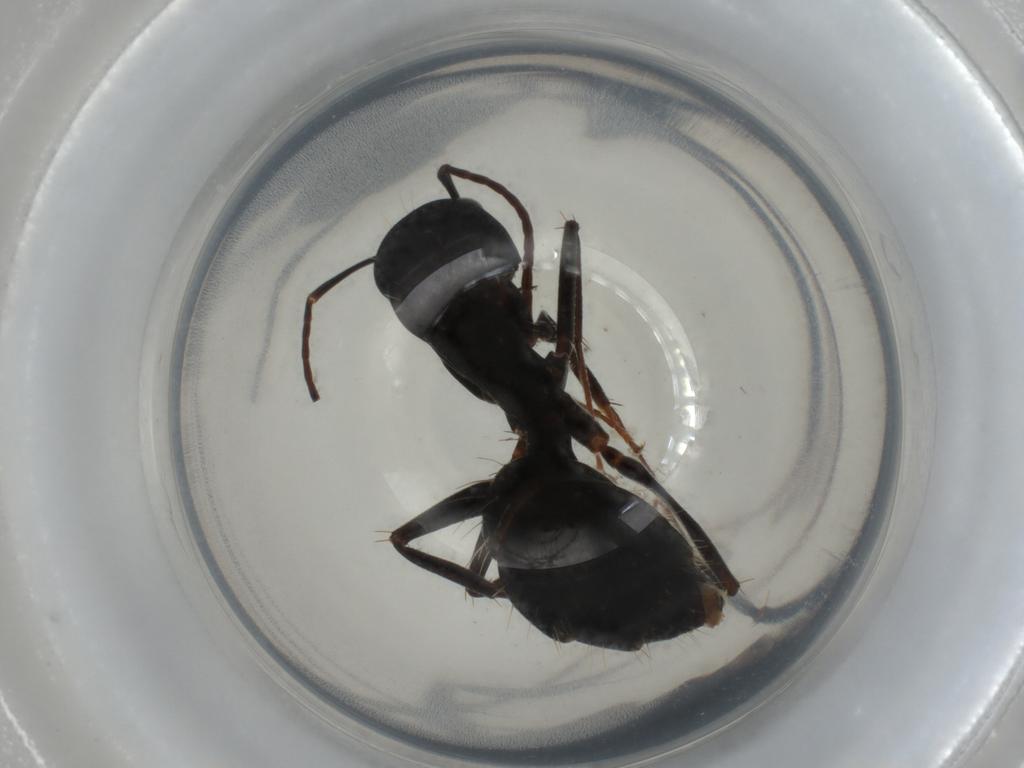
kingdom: Animalia
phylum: Arthropoda
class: Insecta
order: Hymenoptera
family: Formicidae
